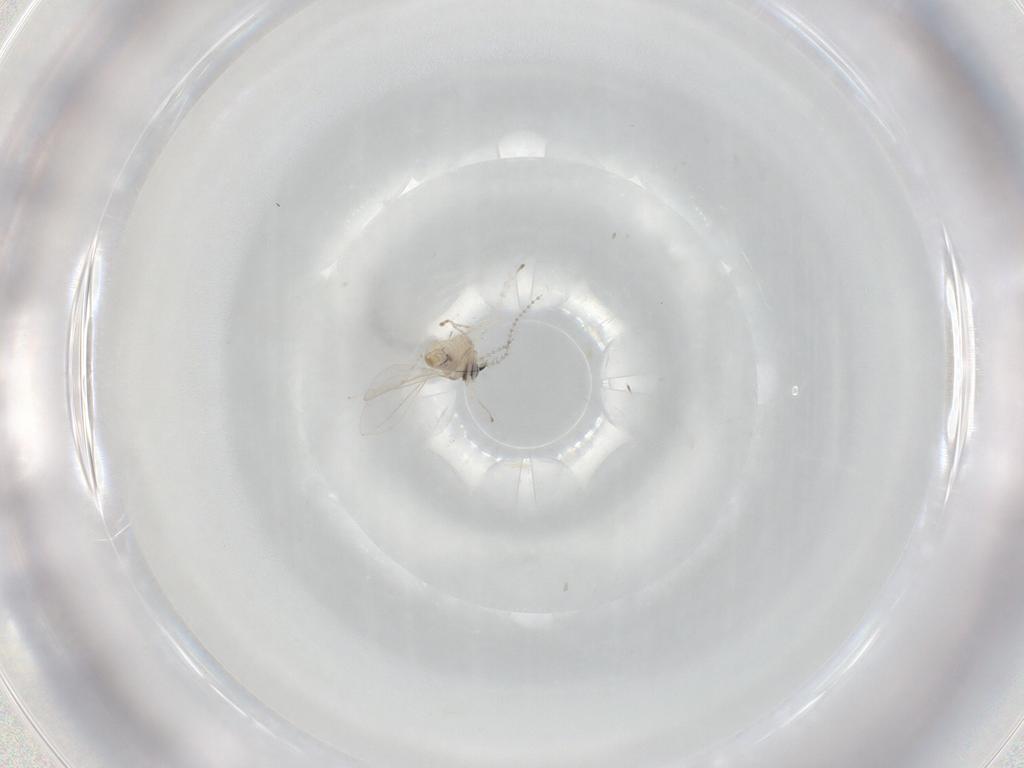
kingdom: Animalia
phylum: Arthropoda
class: Insecta
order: Diptera
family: Cecidomyiidae
